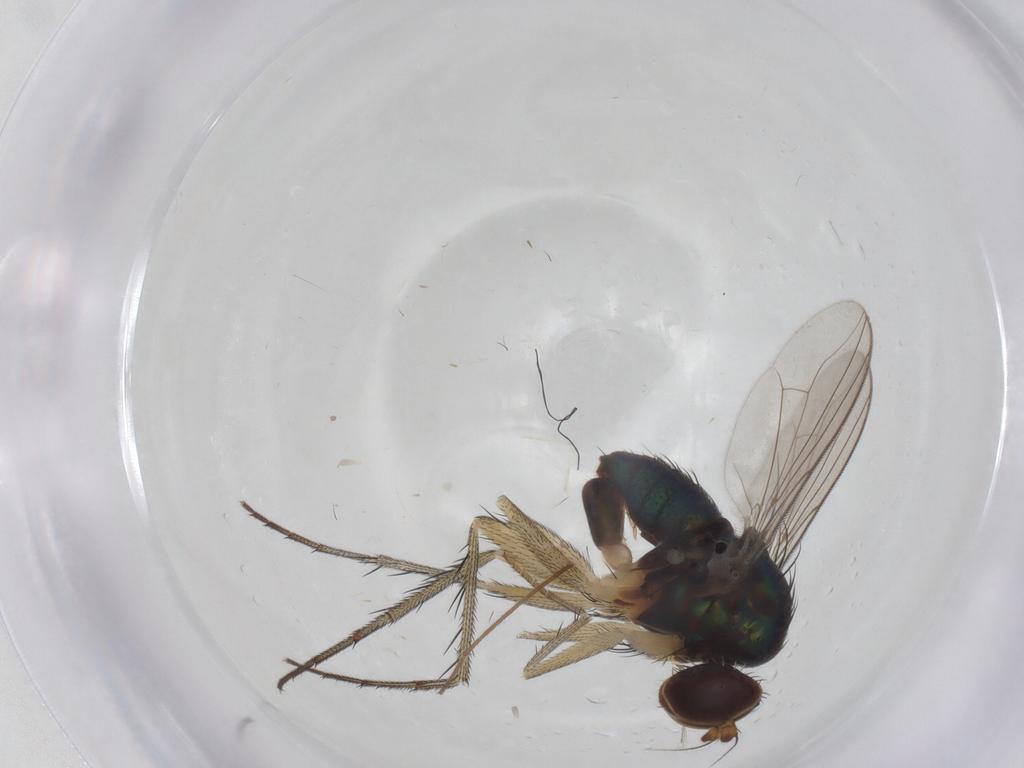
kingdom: Animalia
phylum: Arthropoda
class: Insecta
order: Diptera
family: Dolichopodidae
